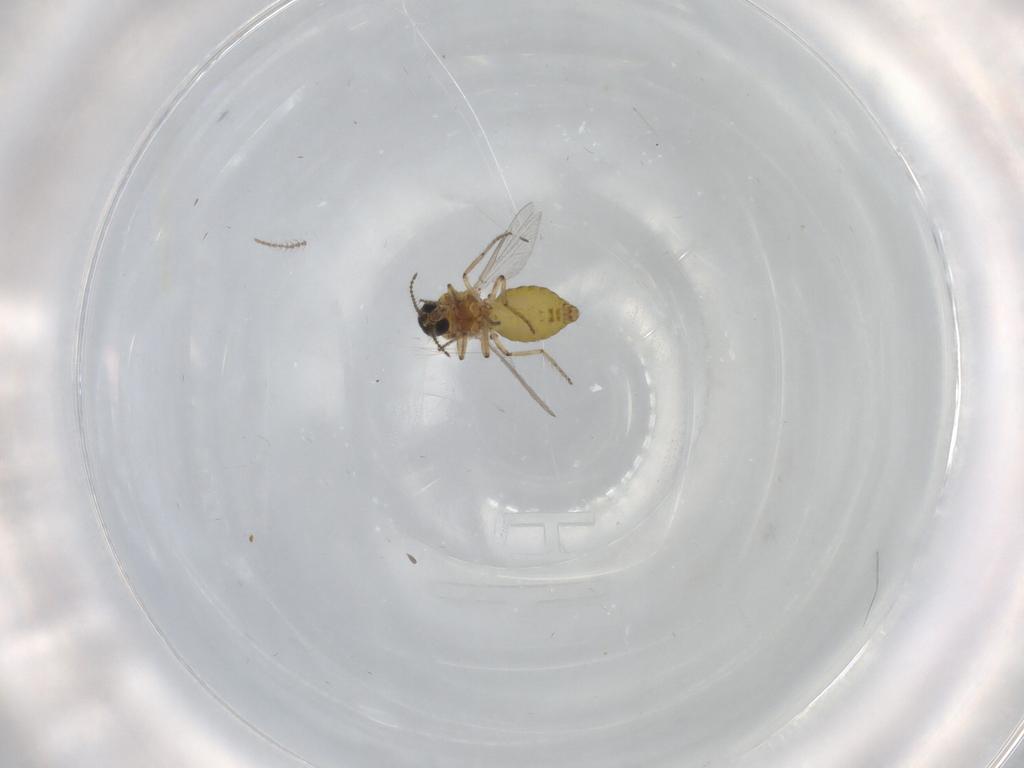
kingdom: Animalia
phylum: Arthropoda
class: Insecta
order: Diptera
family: Ceratopogonidae
